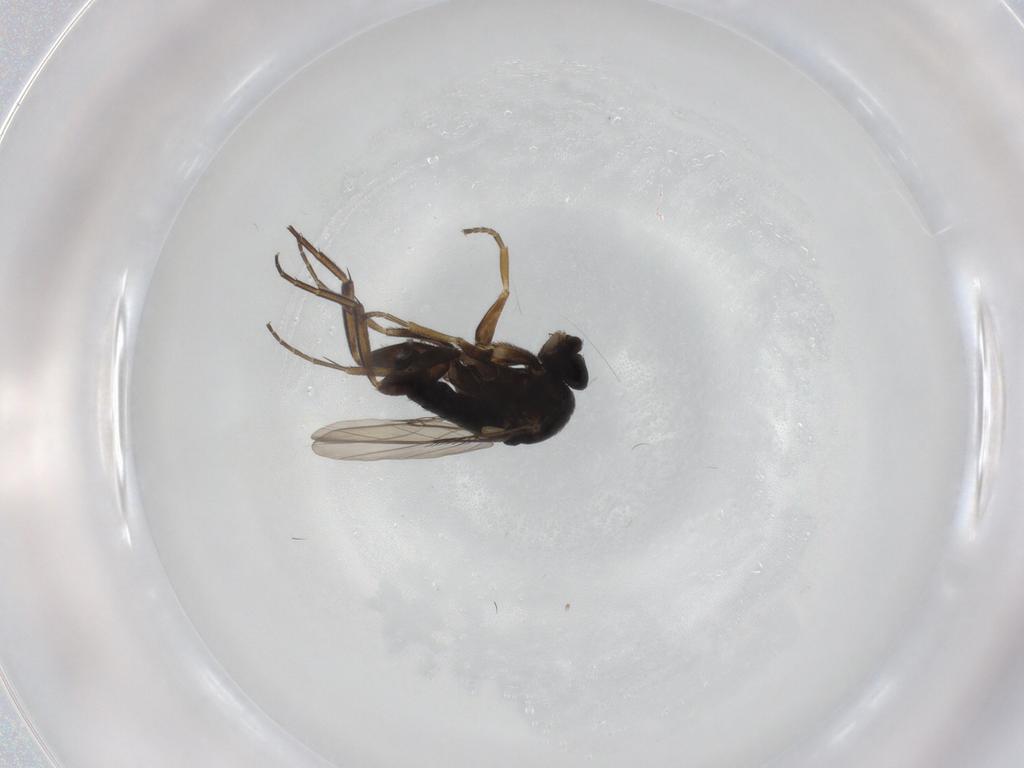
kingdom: Animalia
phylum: Arthropoda
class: Insecta
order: Diptera
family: Phoridae
